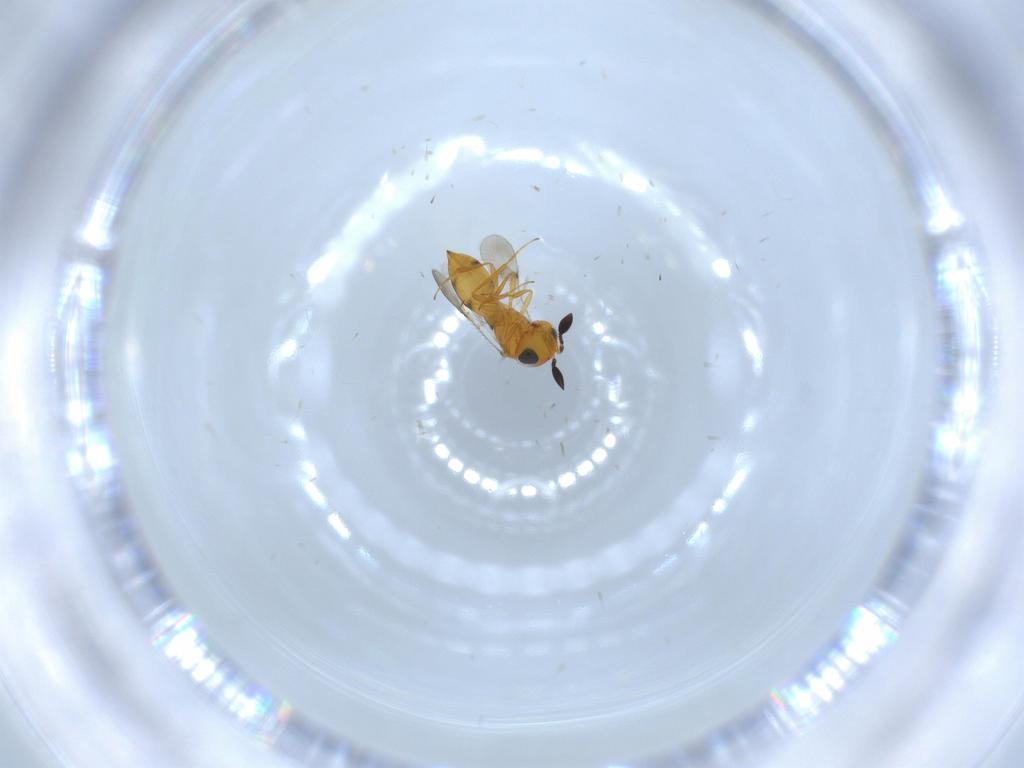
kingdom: Animalia
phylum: Arthropoda
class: Insecta
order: Hymenoptera
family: Scelionidae
